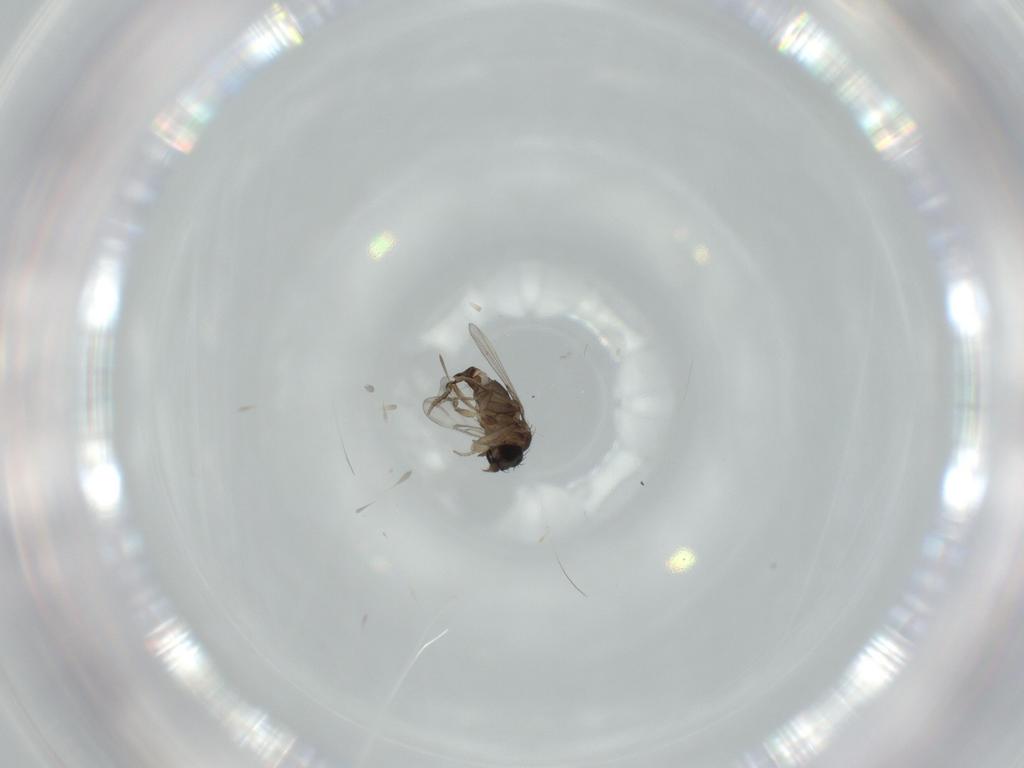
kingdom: Animalia
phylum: Arthropoda
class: Insecta
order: Diptera
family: Phoridae
